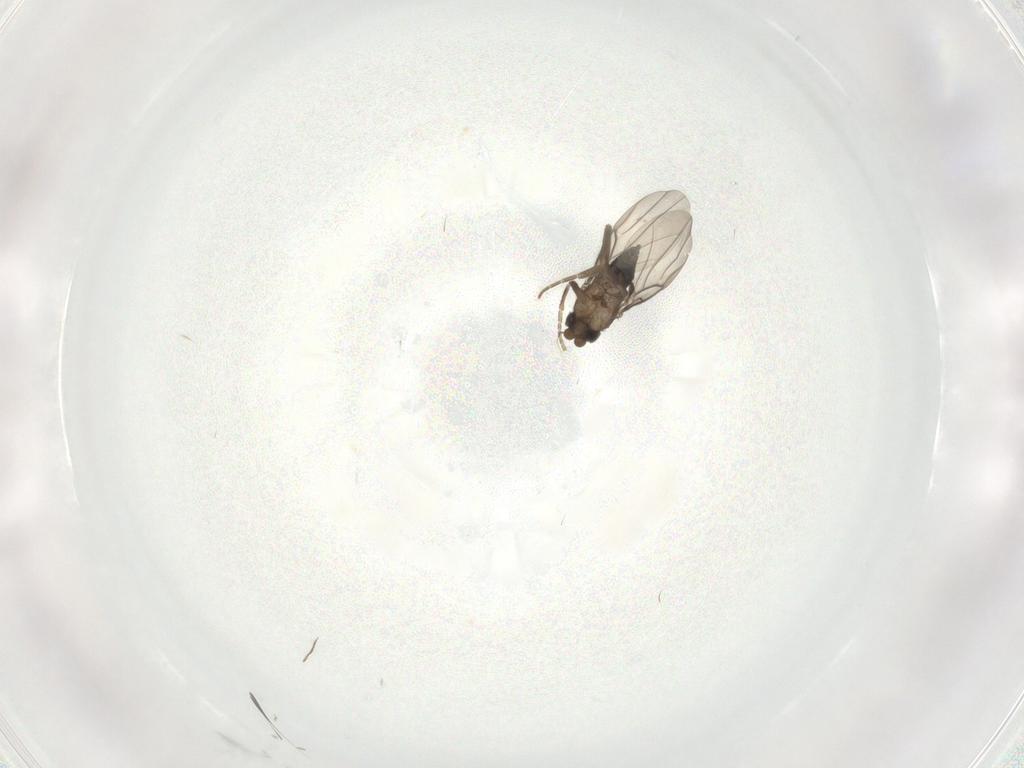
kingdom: Animalia
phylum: Arthropoda
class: Insecta
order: Diptera
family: Phoridae
